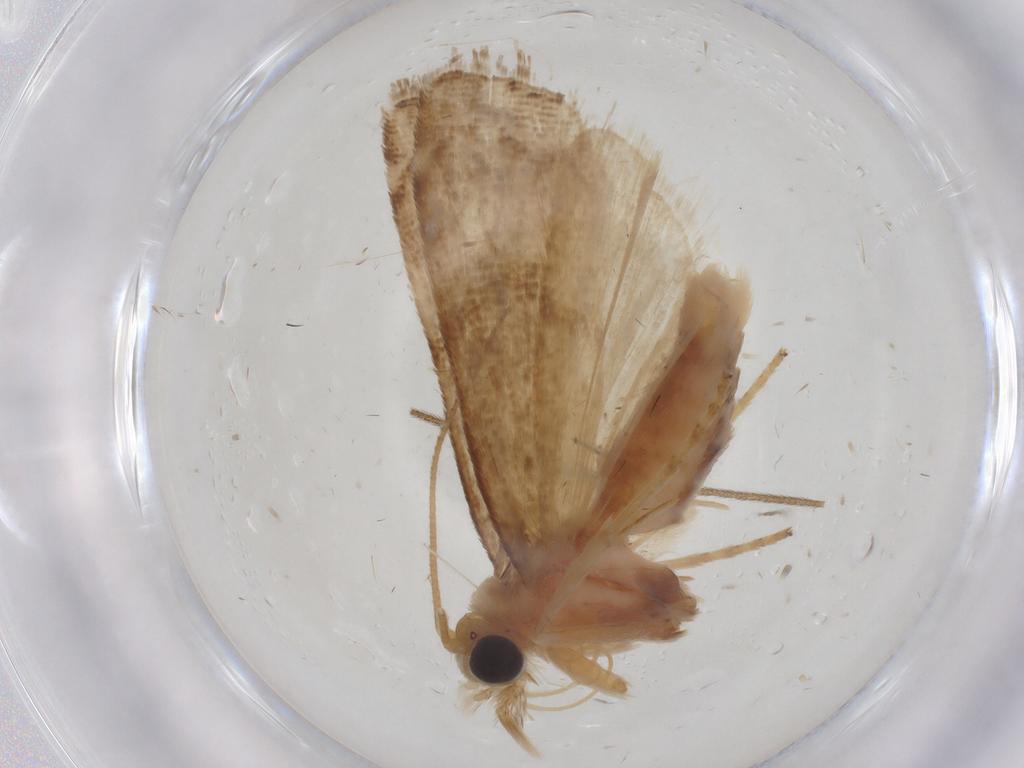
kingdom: Animalia
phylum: Arthropoda
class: Insecta
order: Lepidoptera
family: Pyralidae
